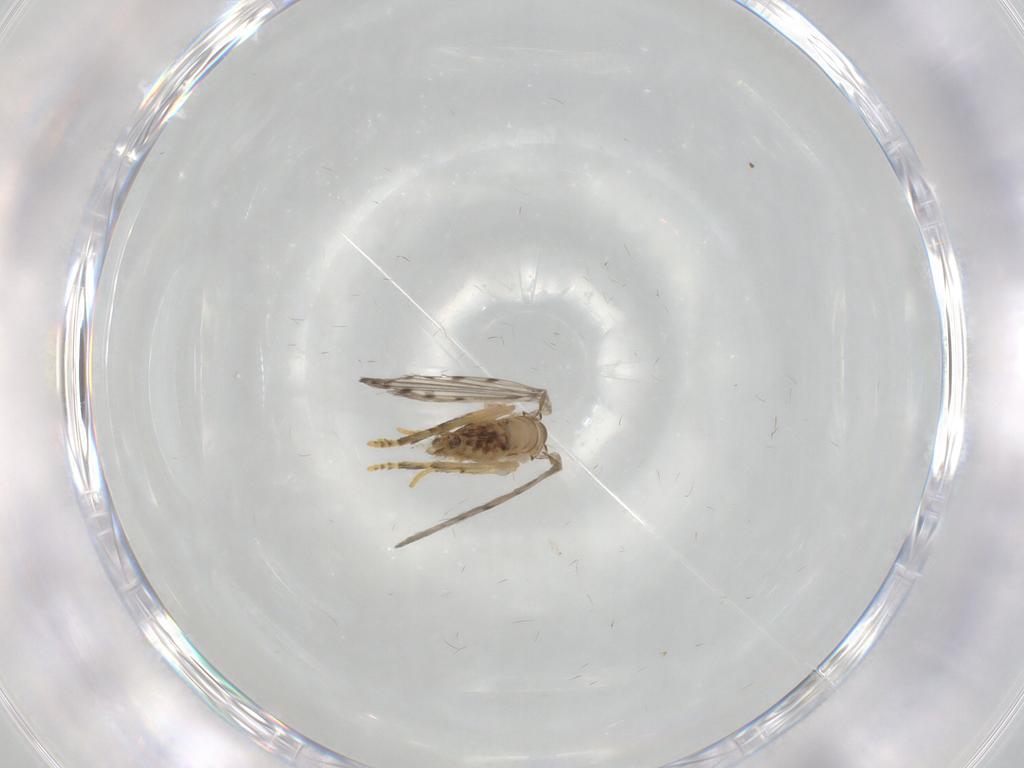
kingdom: Animalia
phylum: Arthropoda
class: Insecta
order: Diptera
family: Psychodidae
